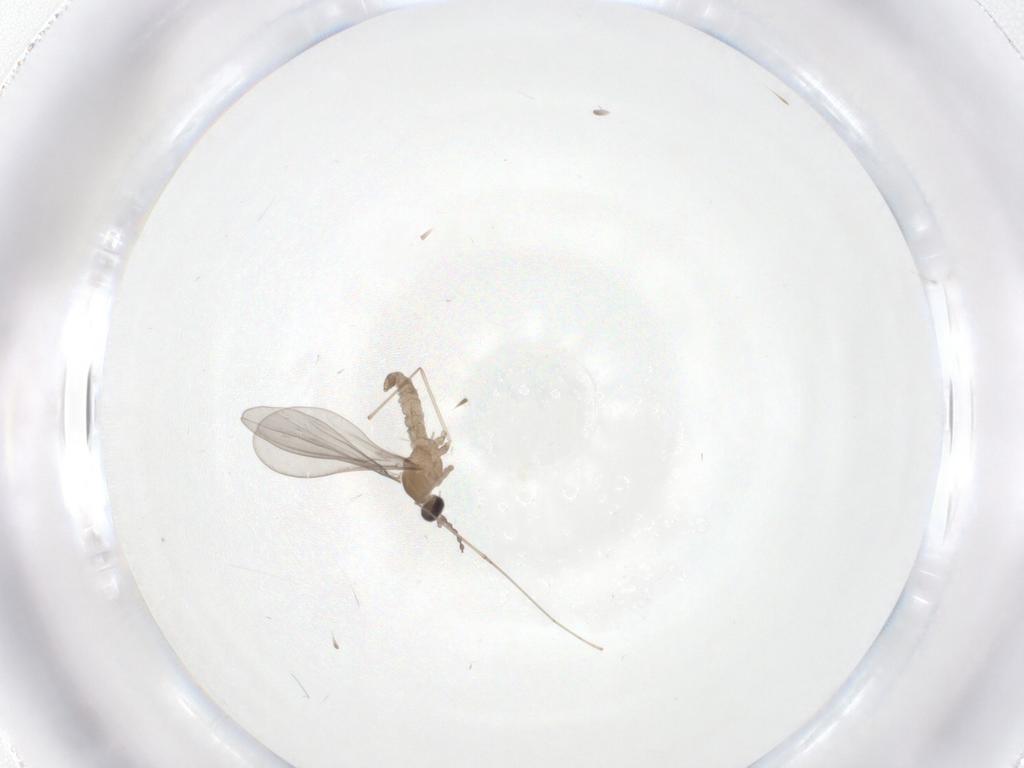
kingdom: Animalia
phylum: Arthropoda
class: Insecta
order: Diptera
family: Cecidomyiidae
